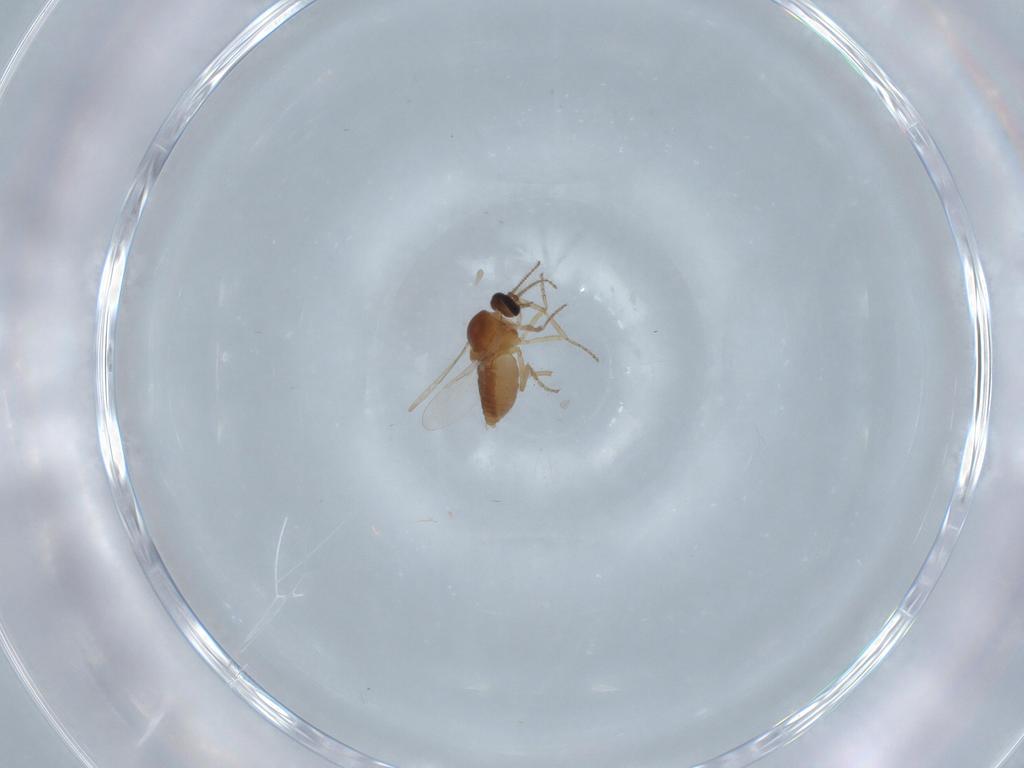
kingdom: Animalia
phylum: Arthropoda
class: Insecta
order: Diptera
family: Ceratopogonidae
